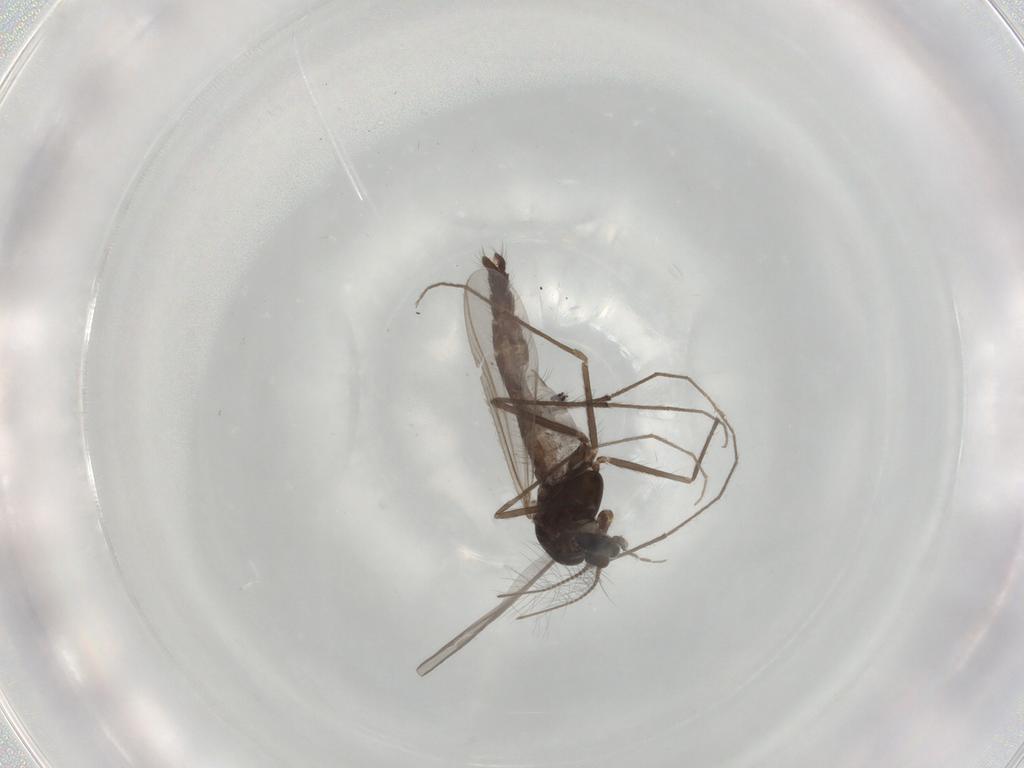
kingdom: Animalia
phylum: Arthropoda
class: Insecta
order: Diptera
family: Chironomidae
